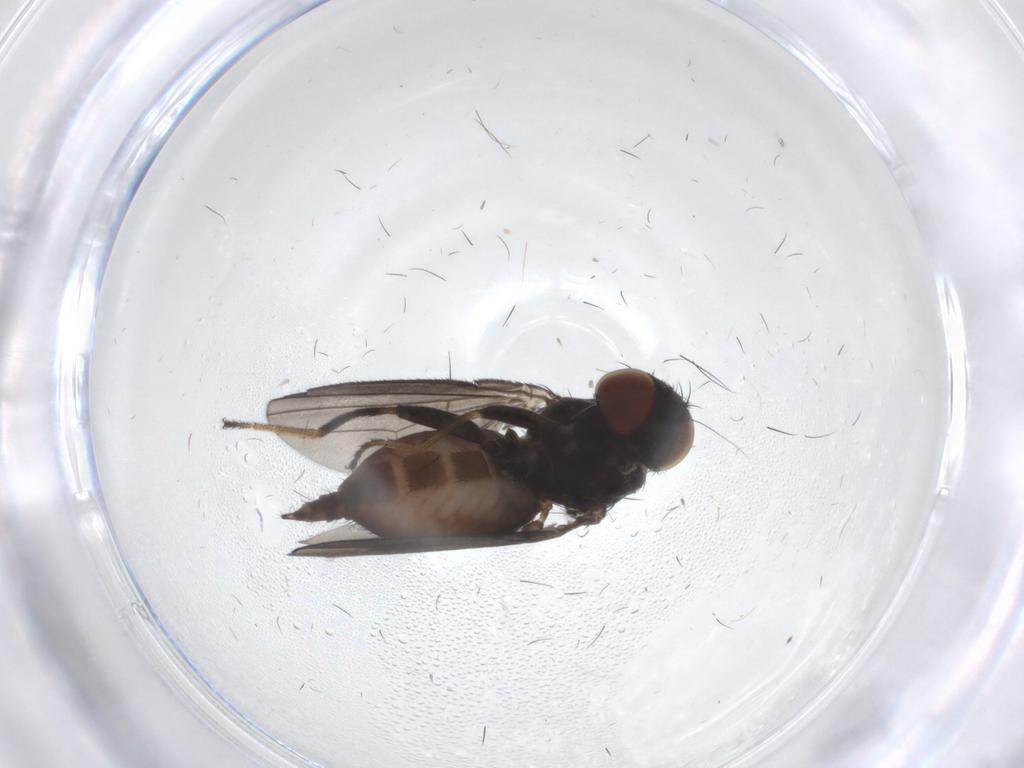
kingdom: Animalia
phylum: Arthropoda
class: Insecta
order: Diptera
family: Milichiidae
